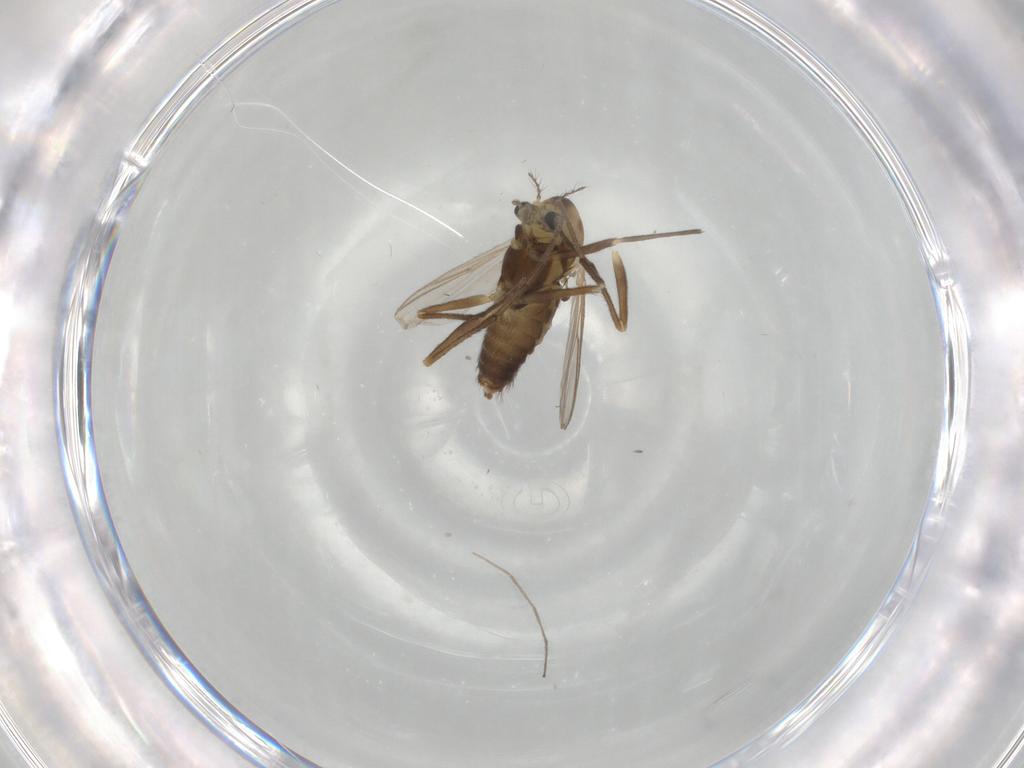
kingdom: Animalia
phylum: Arthropoda
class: Insecta
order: Diptera
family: Chironomidae
